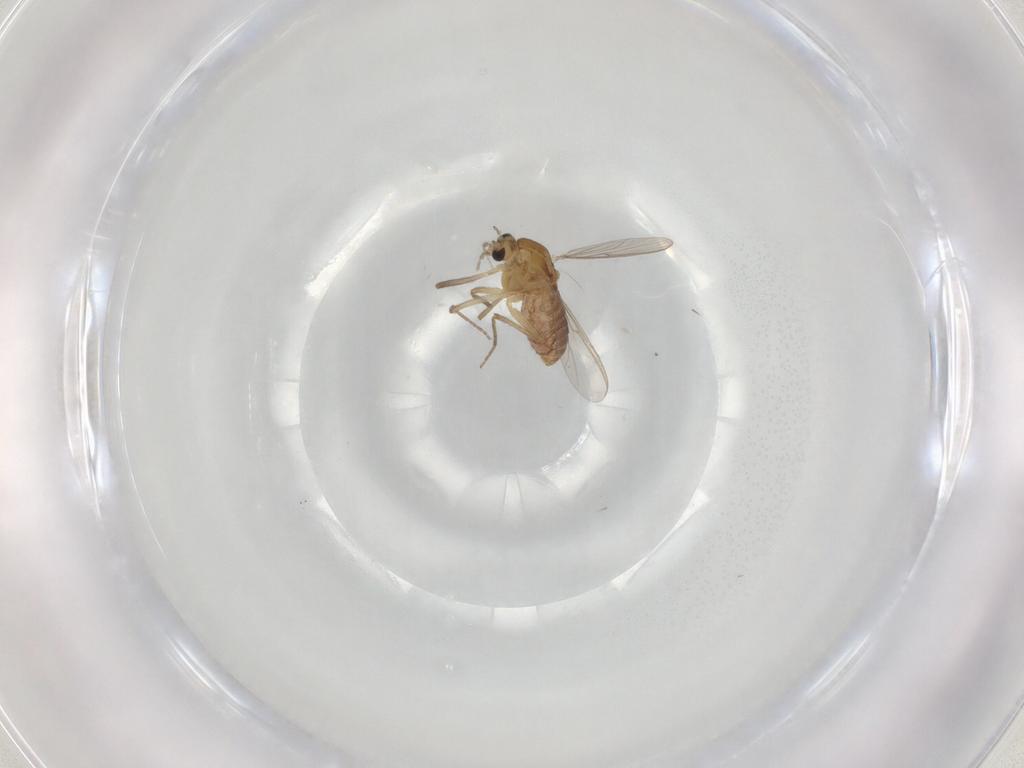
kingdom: Animalia
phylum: Arthropoda
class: Insecta
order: Diptera
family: Chironomidae
